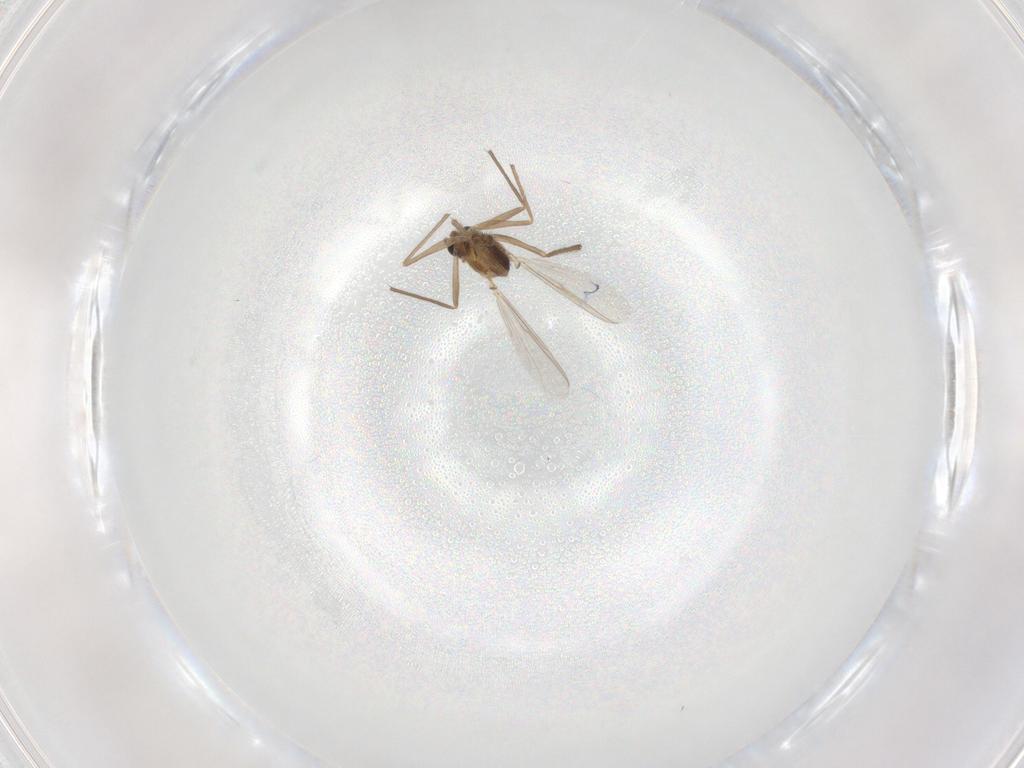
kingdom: Animalia
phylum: Arthropoda
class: Insecta
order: Diptera
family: Chironomidae
